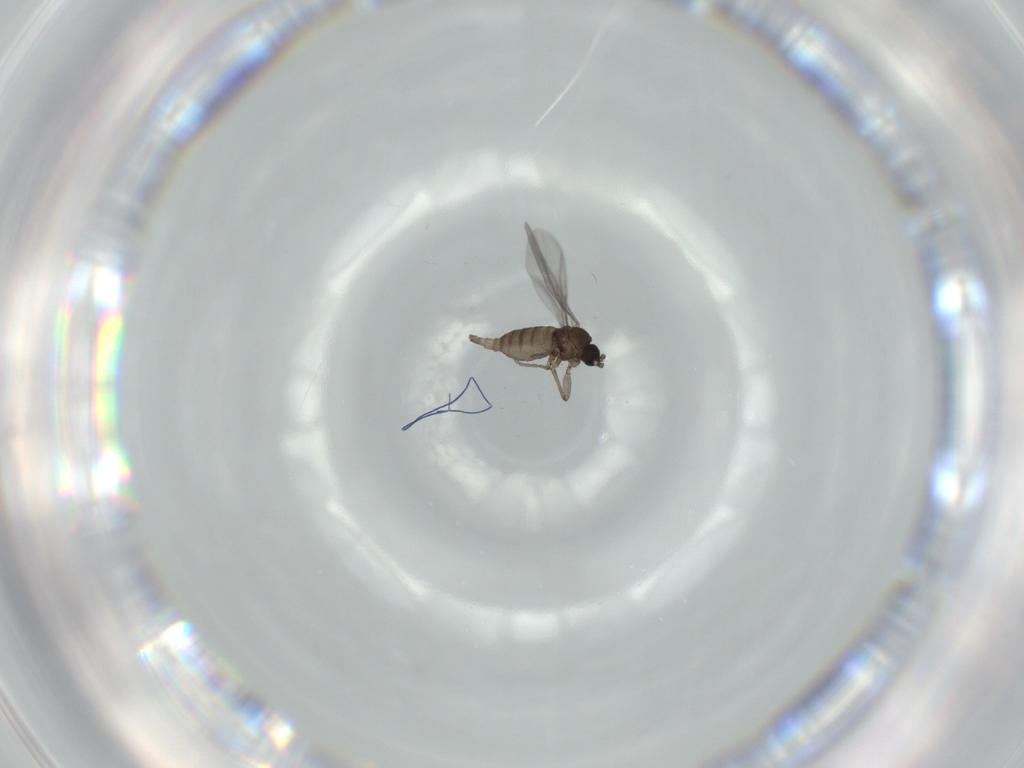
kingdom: Animalia
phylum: Arthropoda
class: Insecta
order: Diptera
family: Sciaridae
